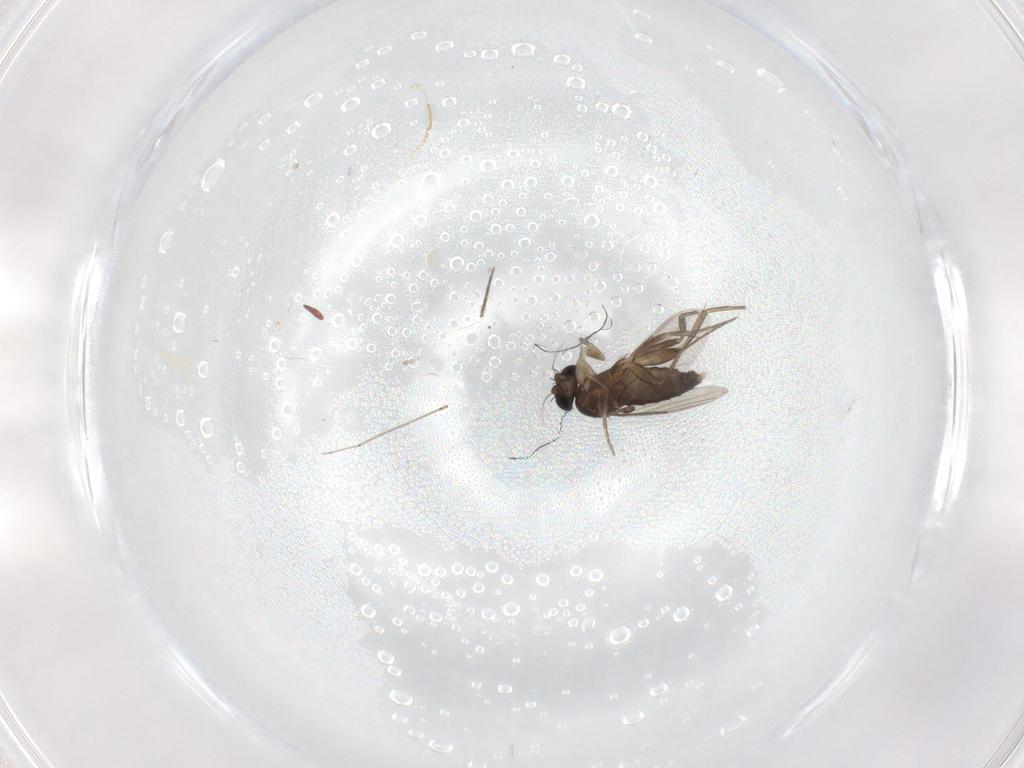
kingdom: Animalia
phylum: Arthropoda
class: Insecta
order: Diptera
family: Phoridae
